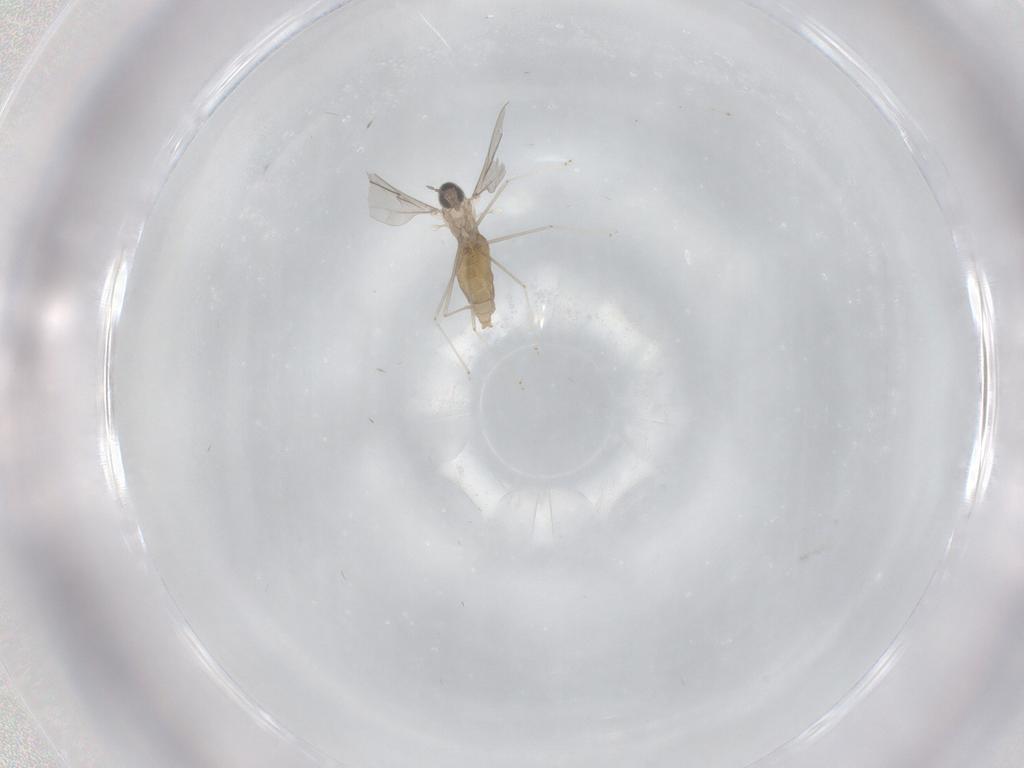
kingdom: Animalia
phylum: Arthropoda
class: Insecta
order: Diptera
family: Cecidomyiidae
